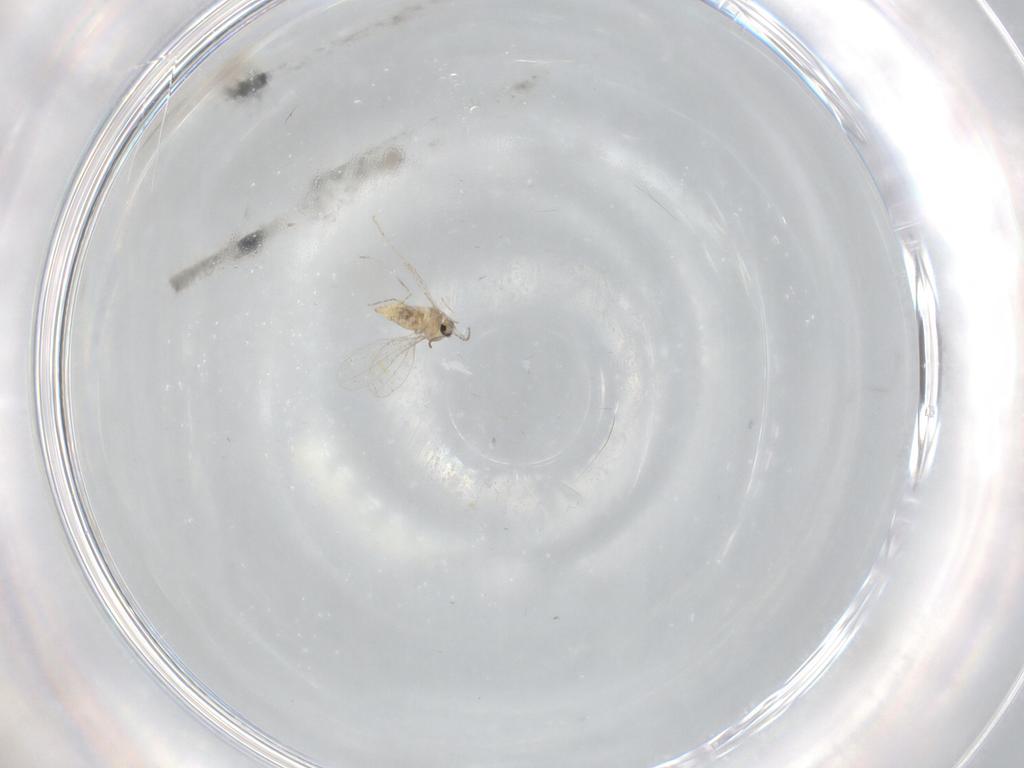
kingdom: Animalia
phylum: Arthropoda
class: Insecta
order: Diptera
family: Cecidomyiidae
